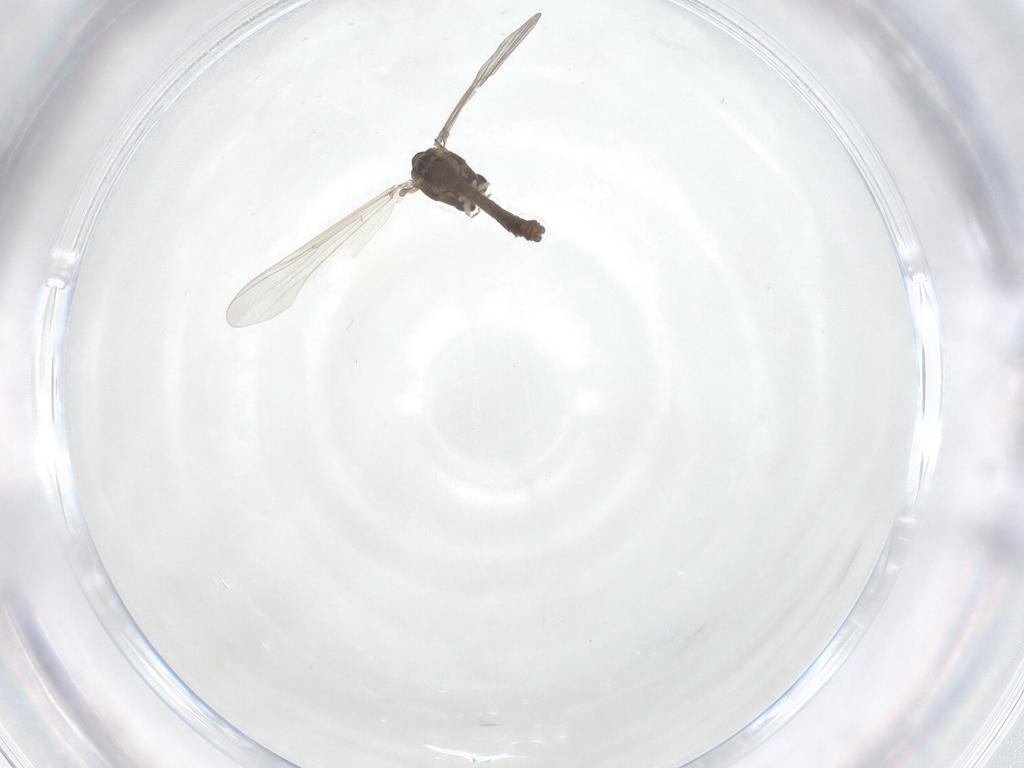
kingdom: Animalia
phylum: Arthropoda
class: Insecta
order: Diptera
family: Chironomidae
